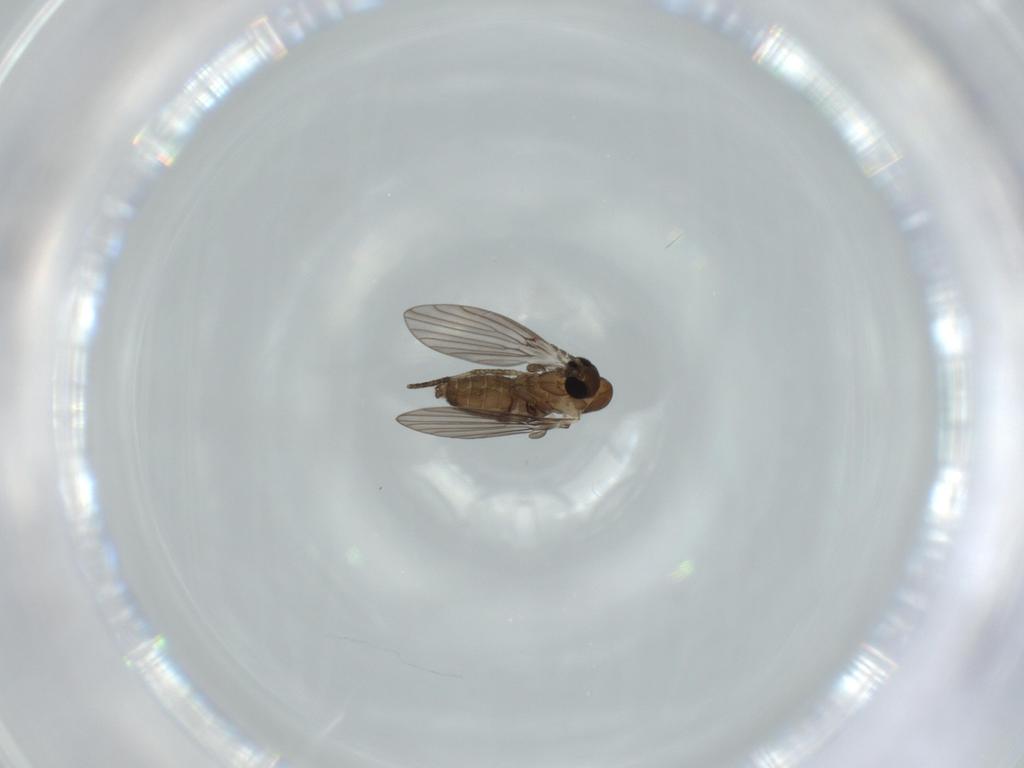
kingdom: Animalia
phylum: Arthropoda
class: Insecta
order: Diptera
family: Psychodidae
